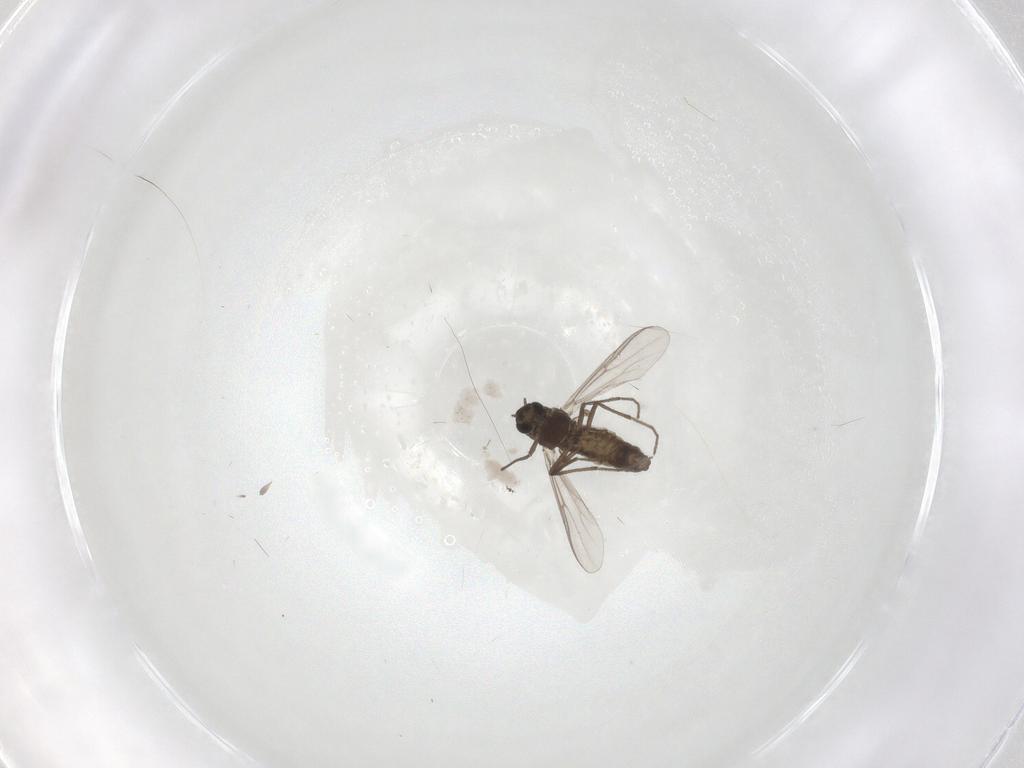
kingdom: Animalia
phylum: Arthropoda
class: Insecta
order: Diptera
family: Chironomidae
